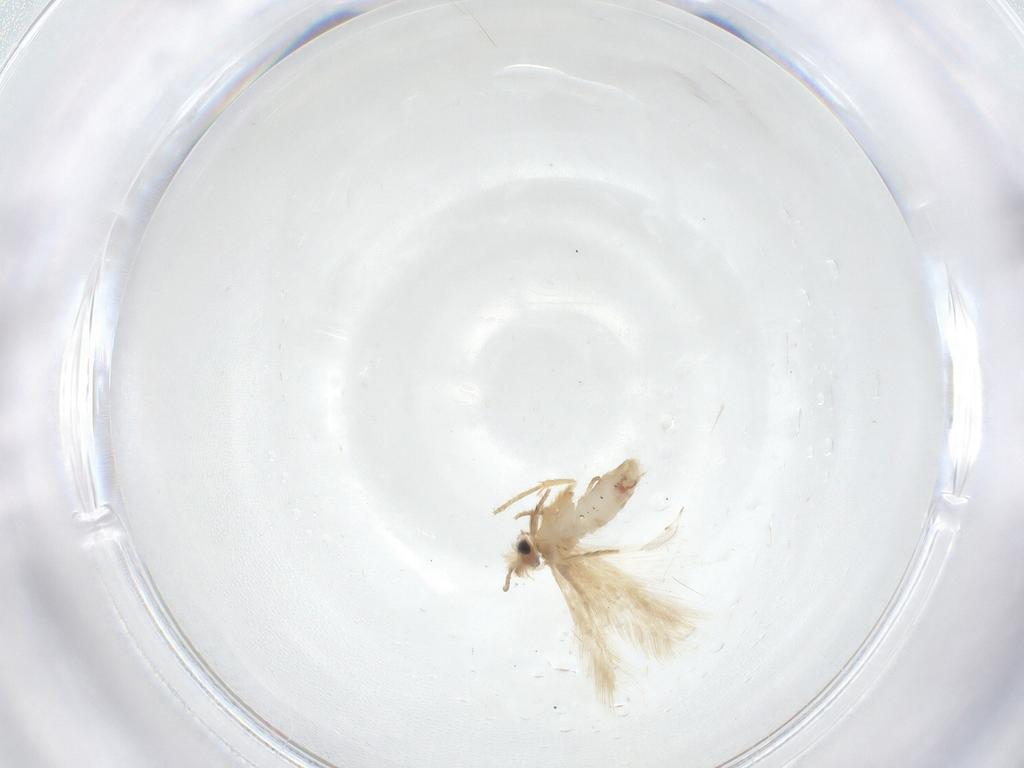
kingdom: Animalia
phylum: Arthropoda
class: Insecta
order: Lepidoptera
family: Nepticulidae
